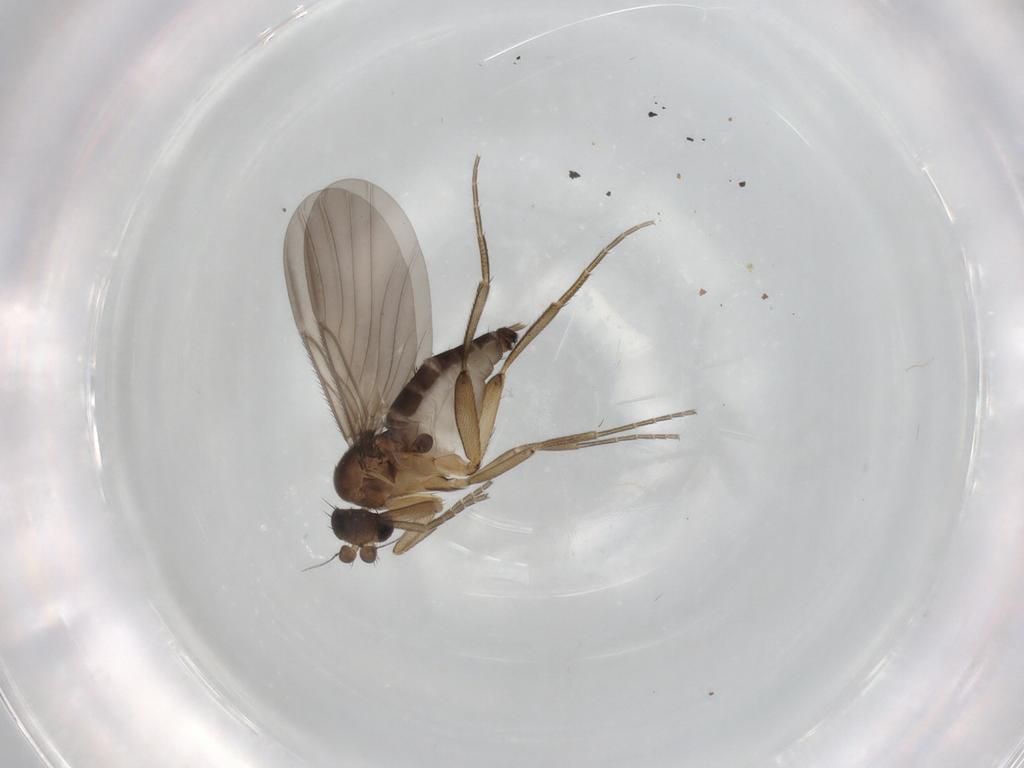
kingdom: Animalia
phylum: Arthropoda
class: Insecta
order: Diptera
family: Phoridae
